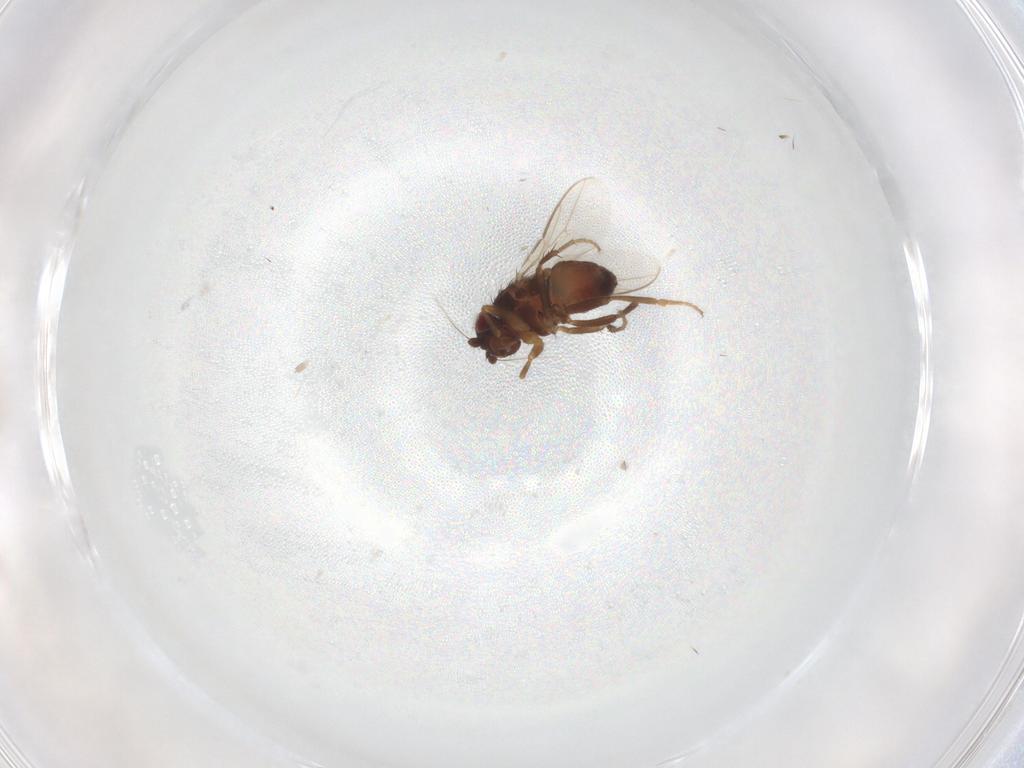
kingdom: Animalia
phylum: Arthropoda
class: Insecta
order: Diptera
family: Sphaeroceridae
